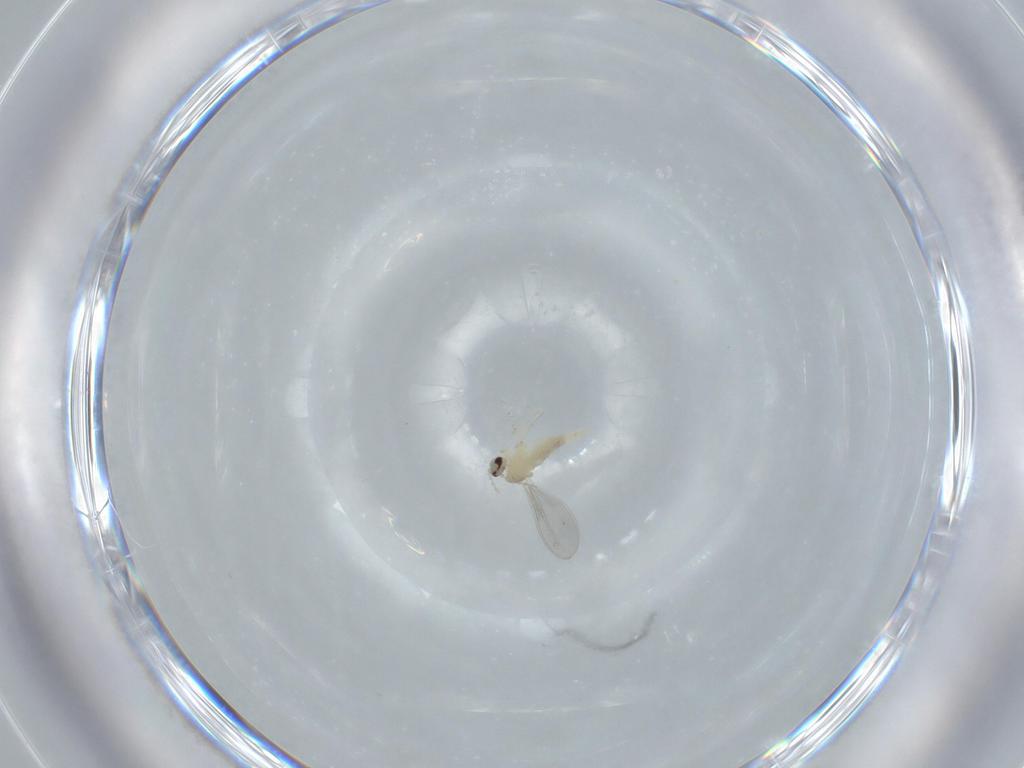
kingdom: Animalia
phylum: Arthropoda
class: Insecta
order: Diptera
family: Cecidomyiidae
